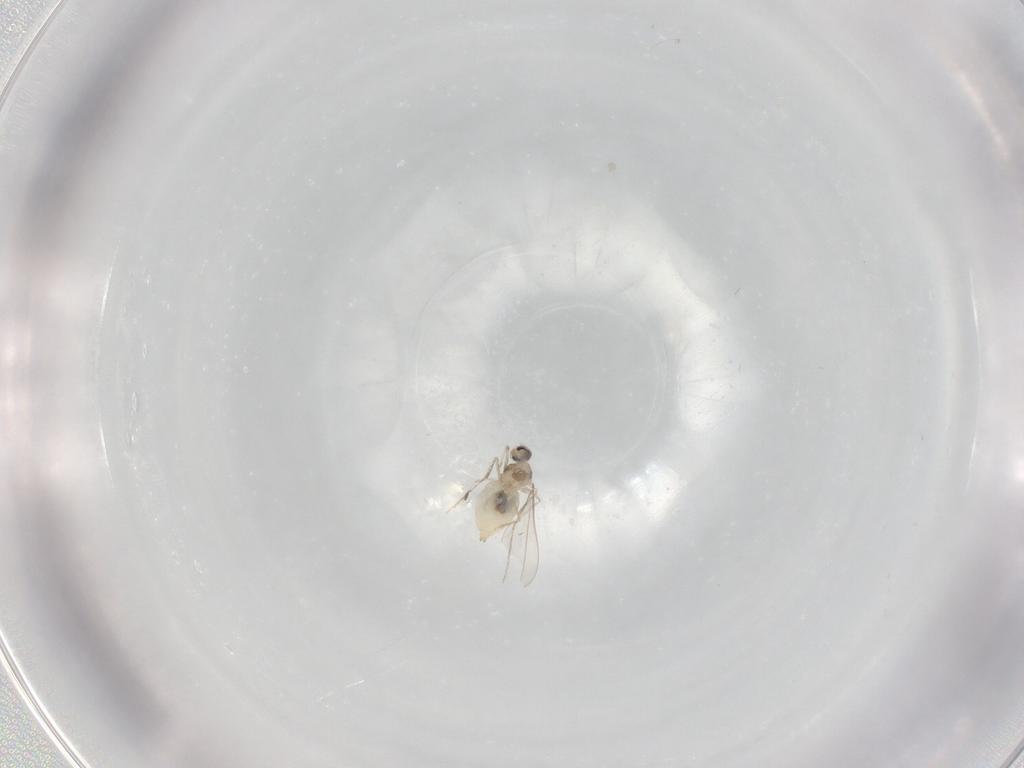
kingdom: Animalia
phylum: Arthropoda
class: Insecta
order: Diptera
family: Cecidomyiidae
